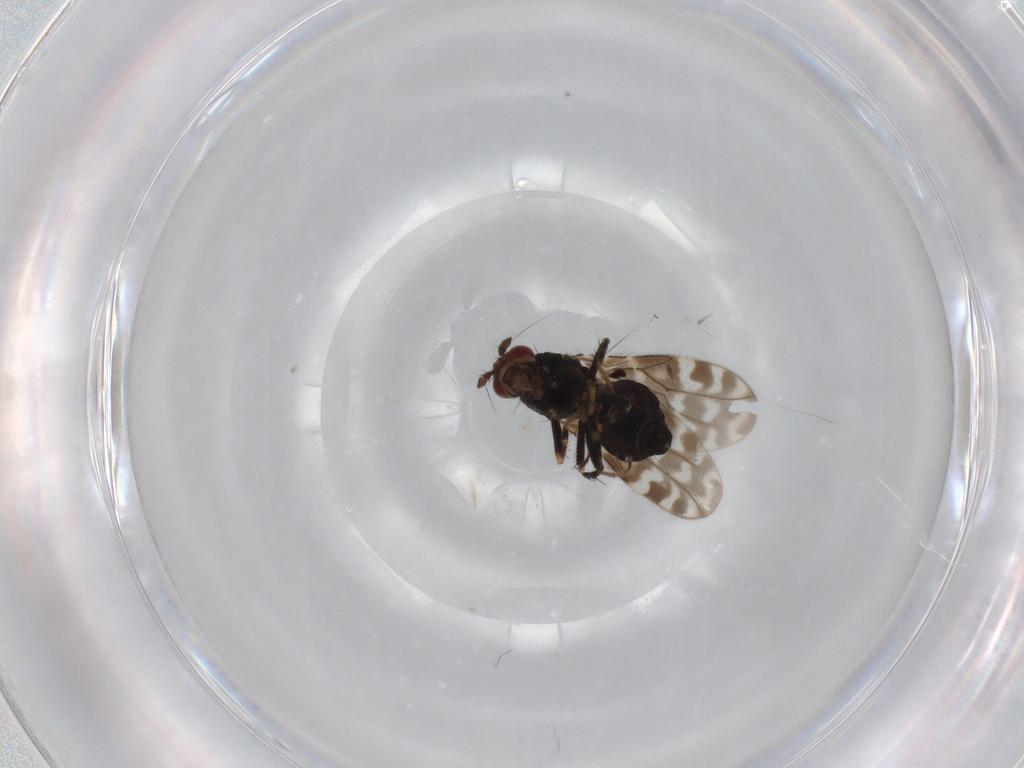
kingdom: Animalia
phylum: Arthropoda
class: Insecta
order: Diptera
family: Sphaeroceridae
